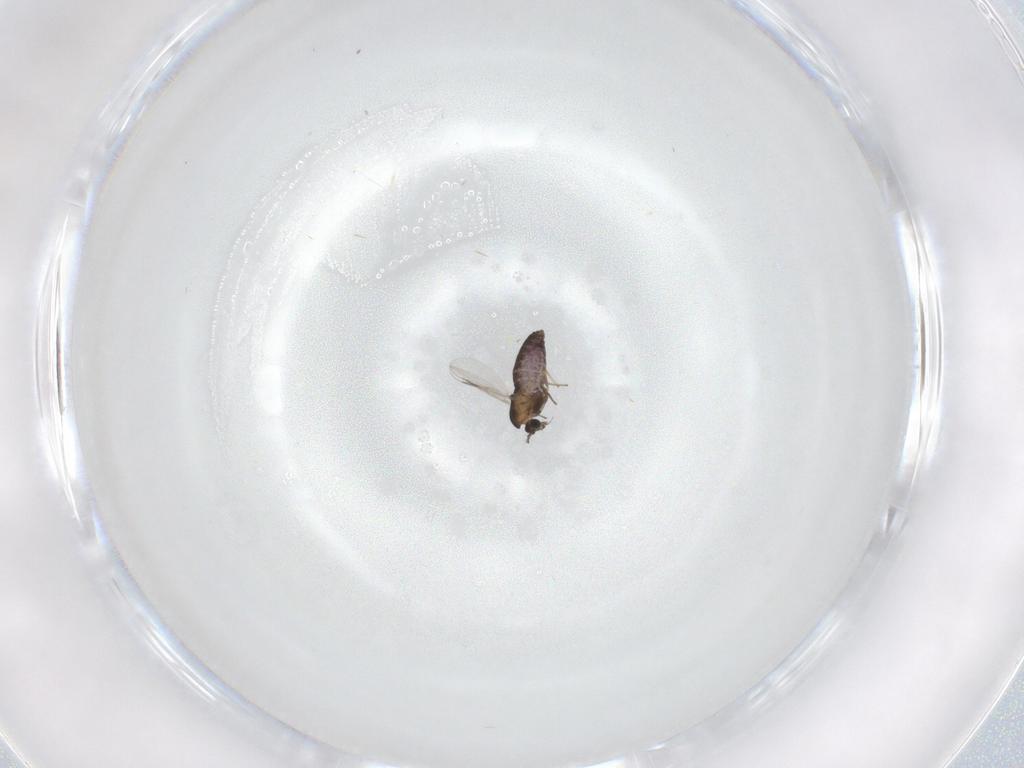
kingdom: Animalia
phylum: Arthropoda
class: Insecta
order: Diptera
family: Chironomidae
